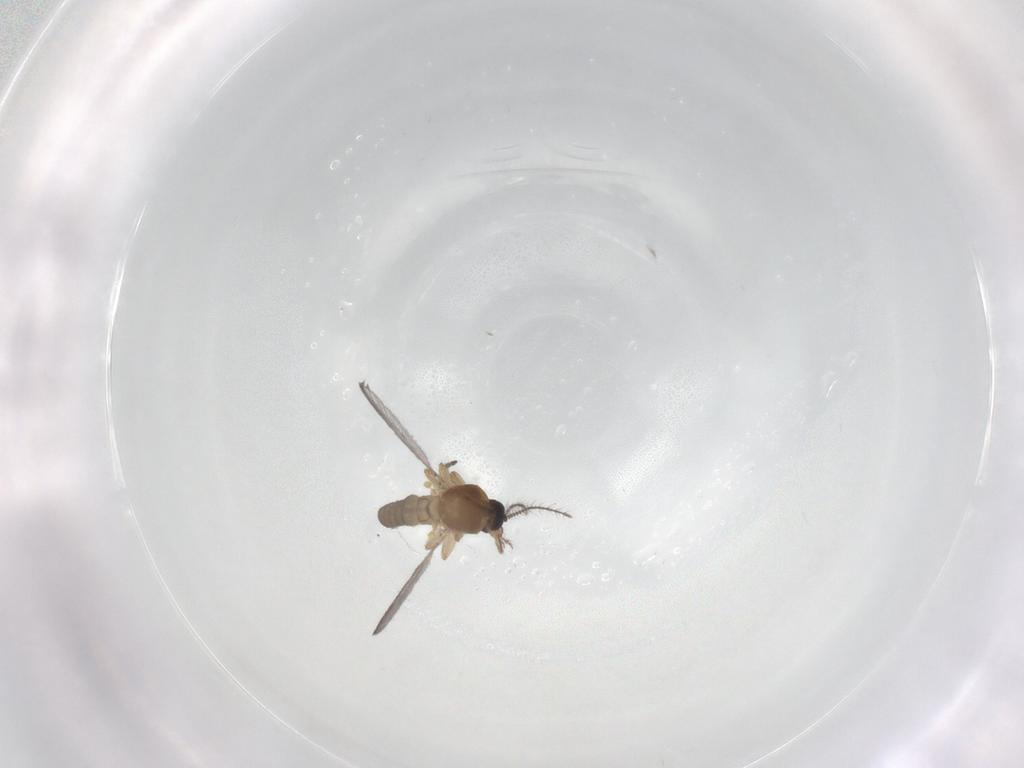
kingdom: Animalia
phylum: Arthropoda
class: Insecta
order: Diptera
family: Ceratopogonidae
